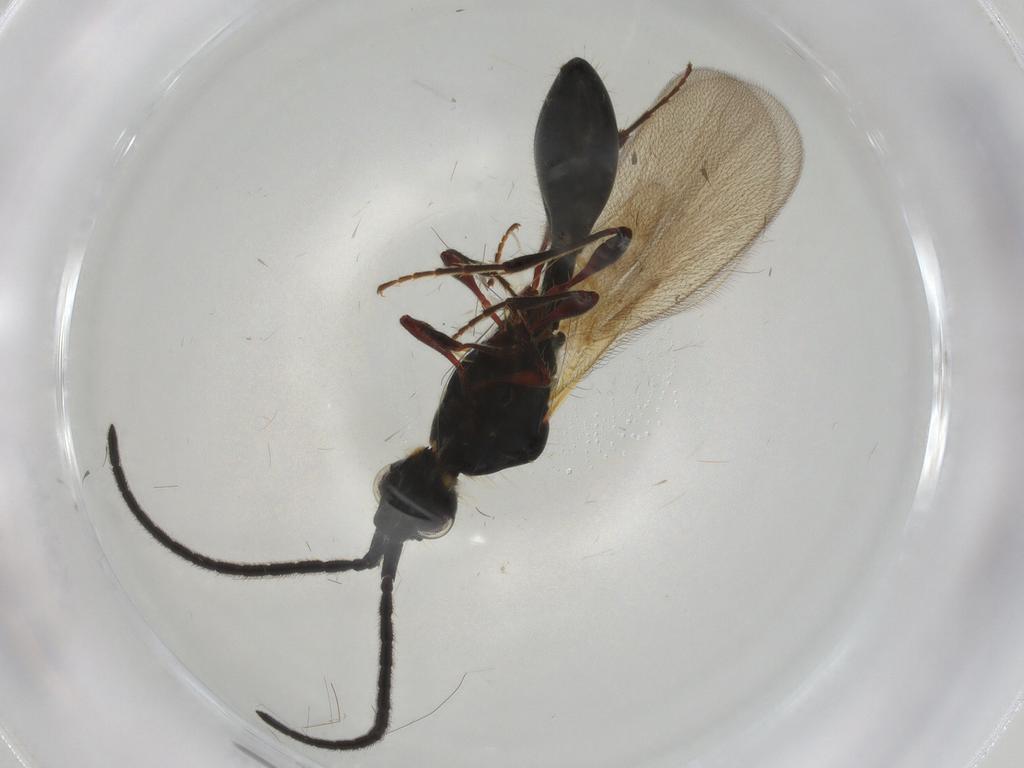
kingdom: Animalia
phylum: Arthropoda
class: Insecta
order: Hymenoptera
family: Diapriidae
